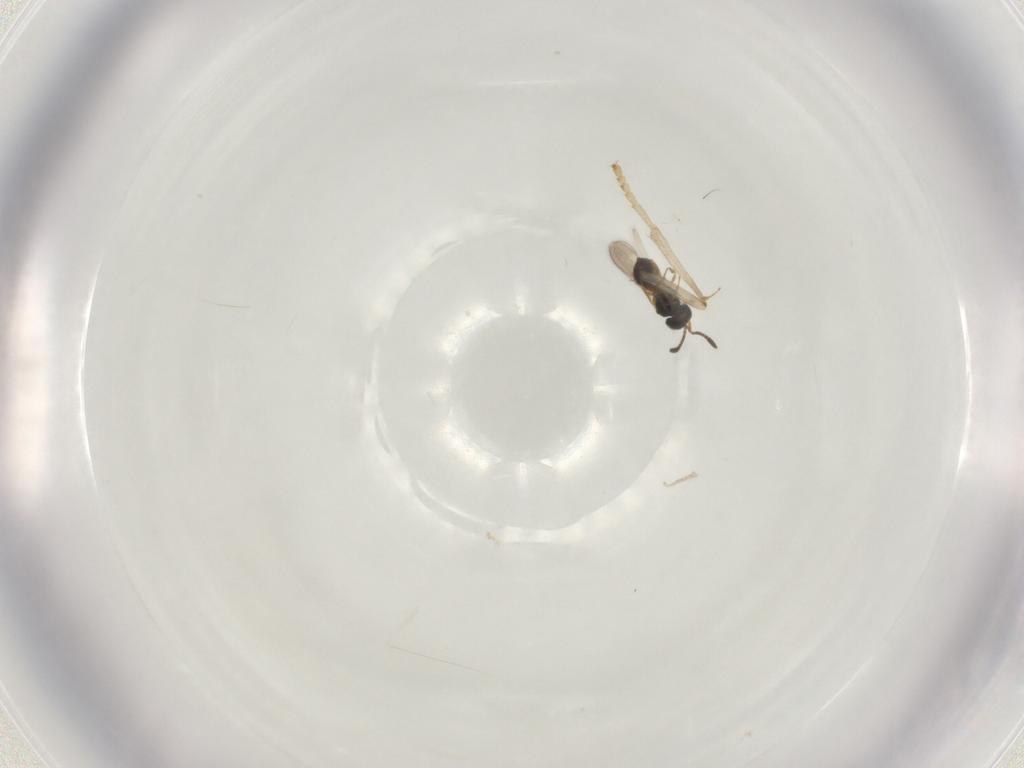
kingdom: Animalia
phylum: Arthropoda
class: Insecta
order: Hymenoptera
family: Scelionidae
